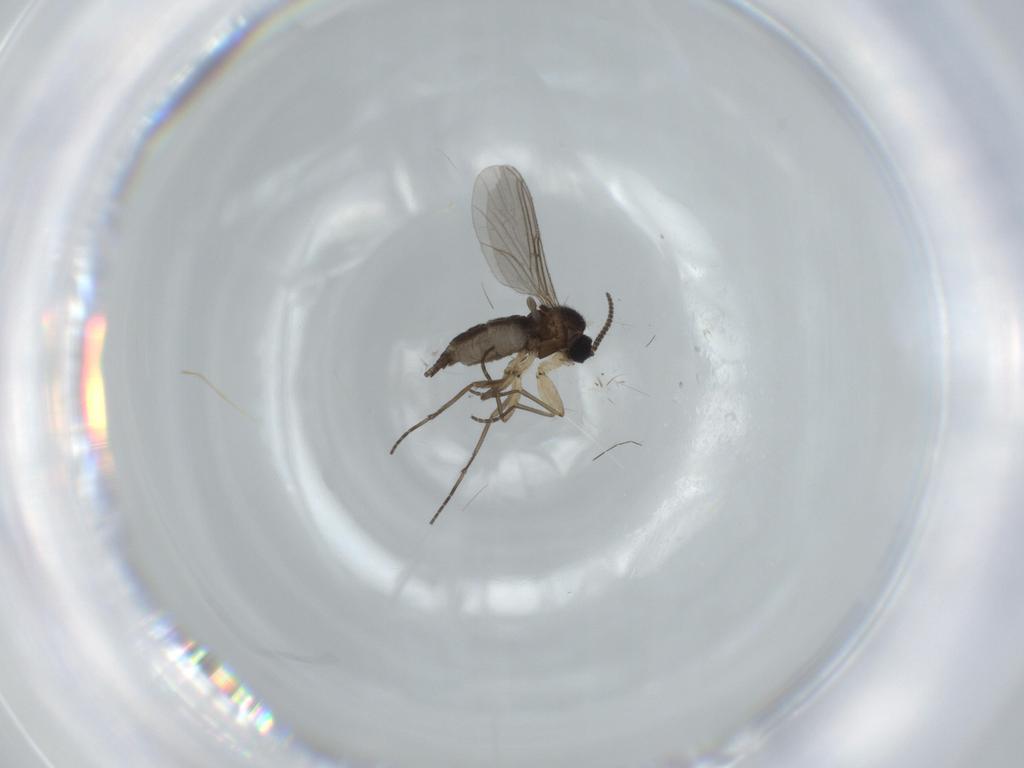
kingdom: Animalia
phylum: Arthropoda
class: Insecta
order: Diptera
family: Sciaridae
